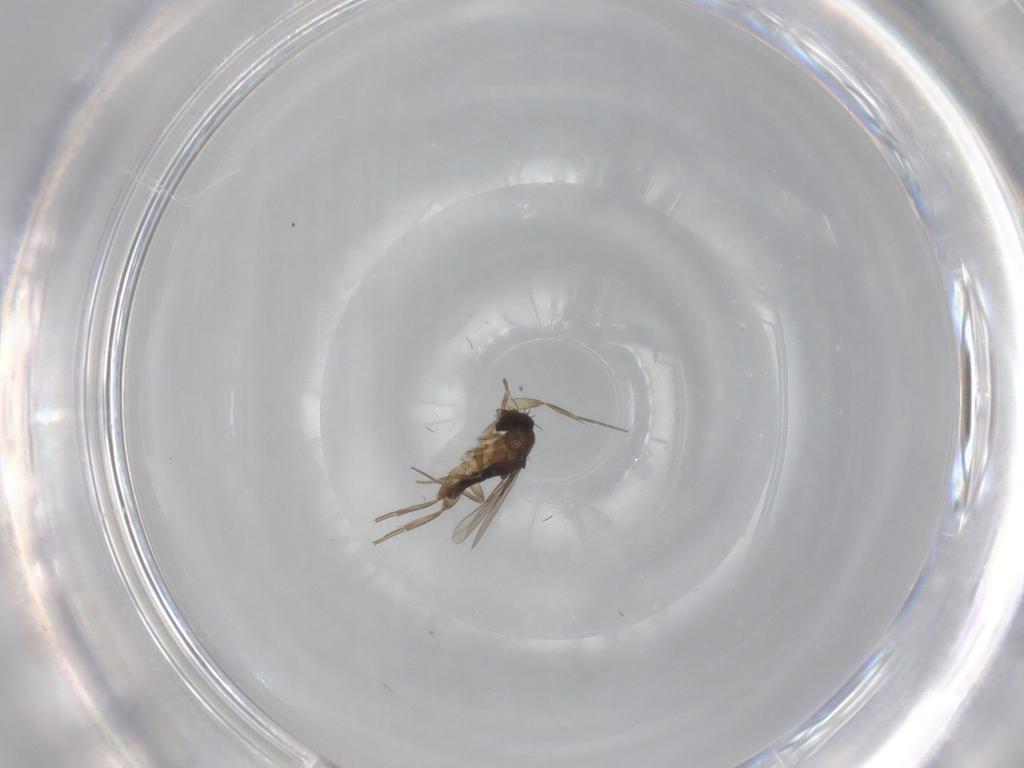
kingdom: Animalia
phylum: Arthropoda
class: Insecta
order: Diptera
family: Phoridae
